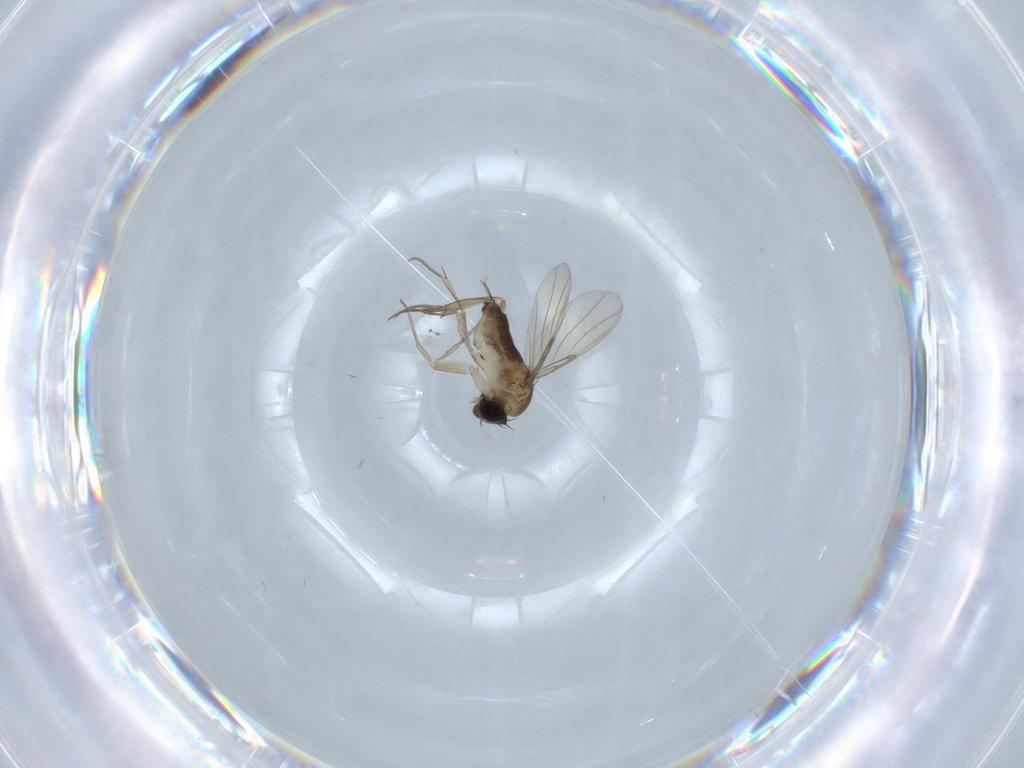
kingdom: Animalia
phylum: Arthropoda
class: Insecta
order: Diptera
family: Phoridae
